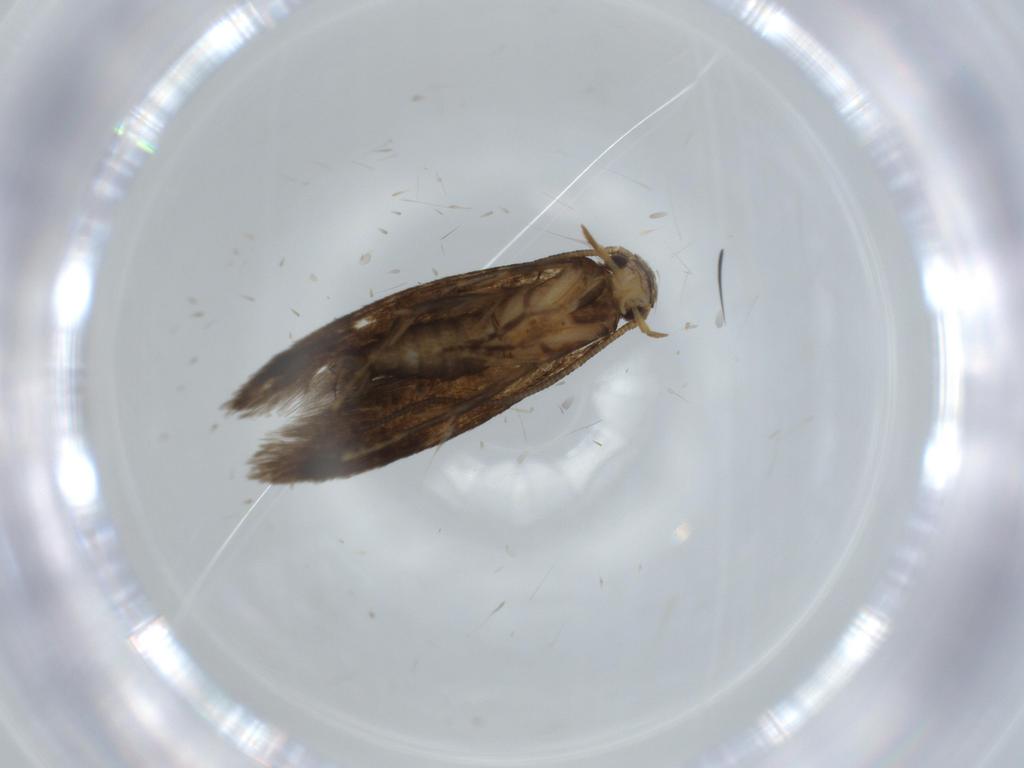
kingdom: Animalia
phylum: Arthropoda
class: Insecta
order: Lepidoptera
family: Tineidae
